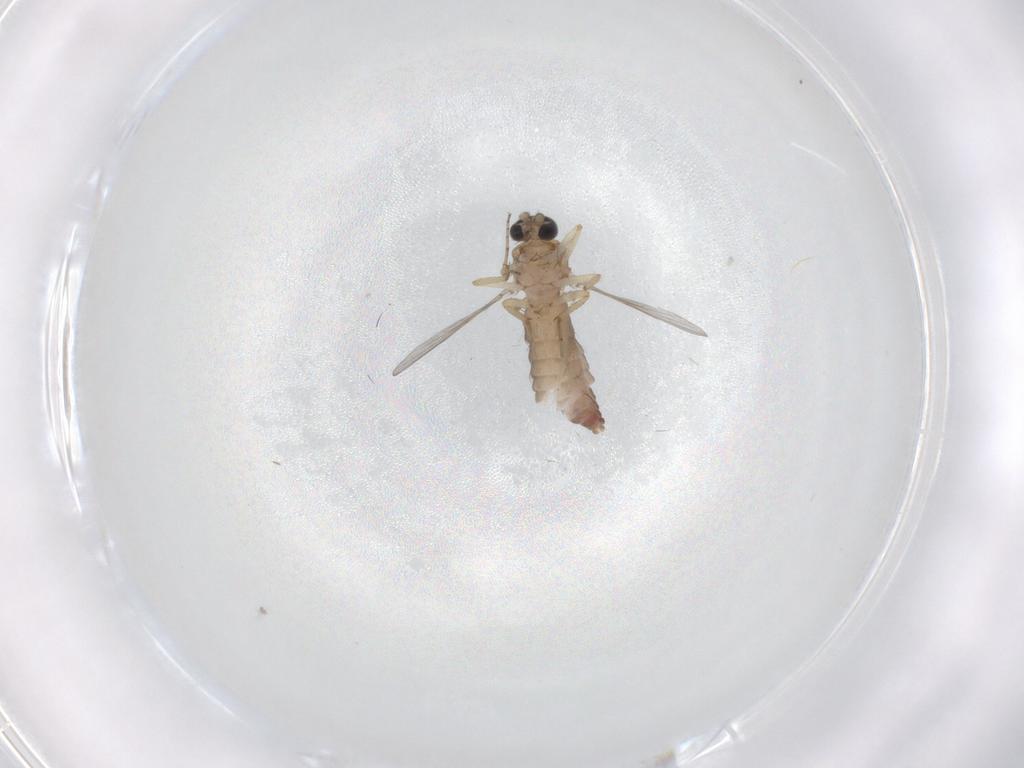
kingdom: Animalia
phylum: Arthropoda
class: Insecta
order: Diptera
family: Ceratopogonidae
